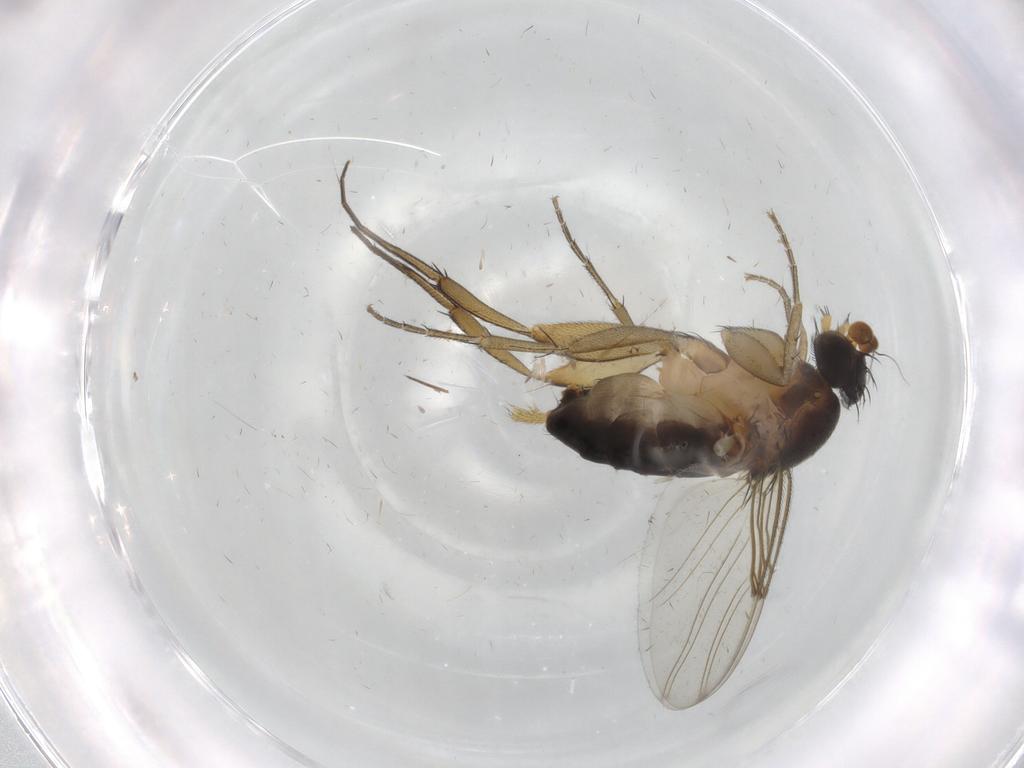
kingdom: Animalia
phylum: Arthropoda
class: Insecta
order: Diptera
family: Phoridae
